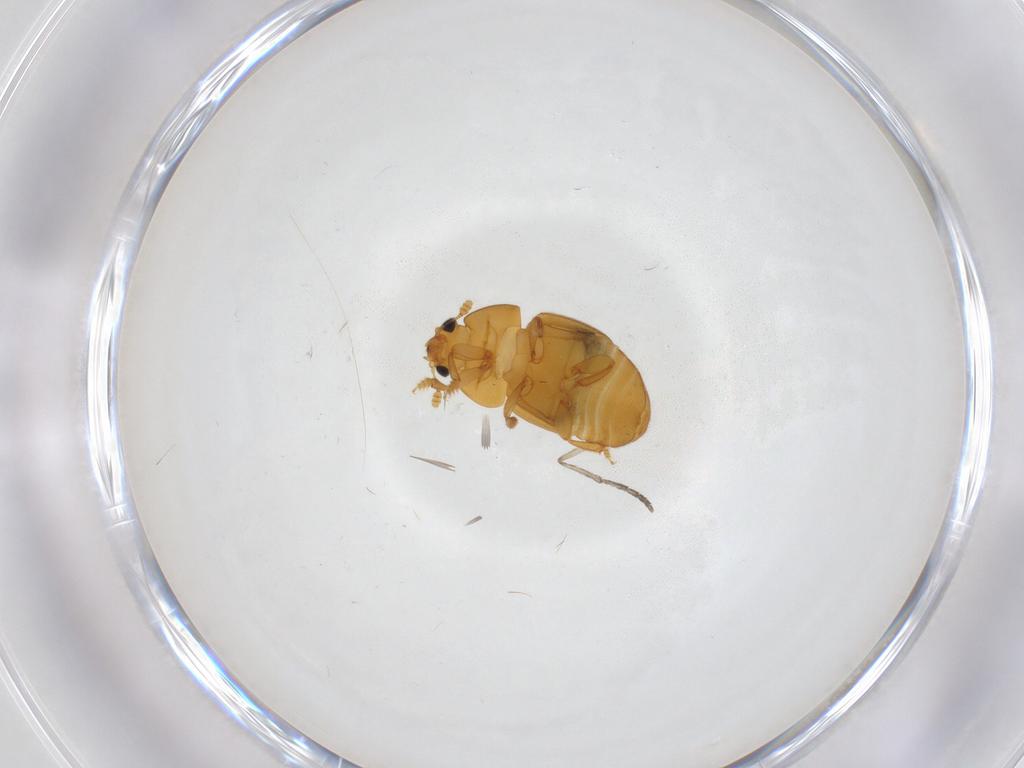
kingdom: Animalia
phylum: Arthropoda
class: Insecta
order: Coleoptera
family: Nitidulidae
